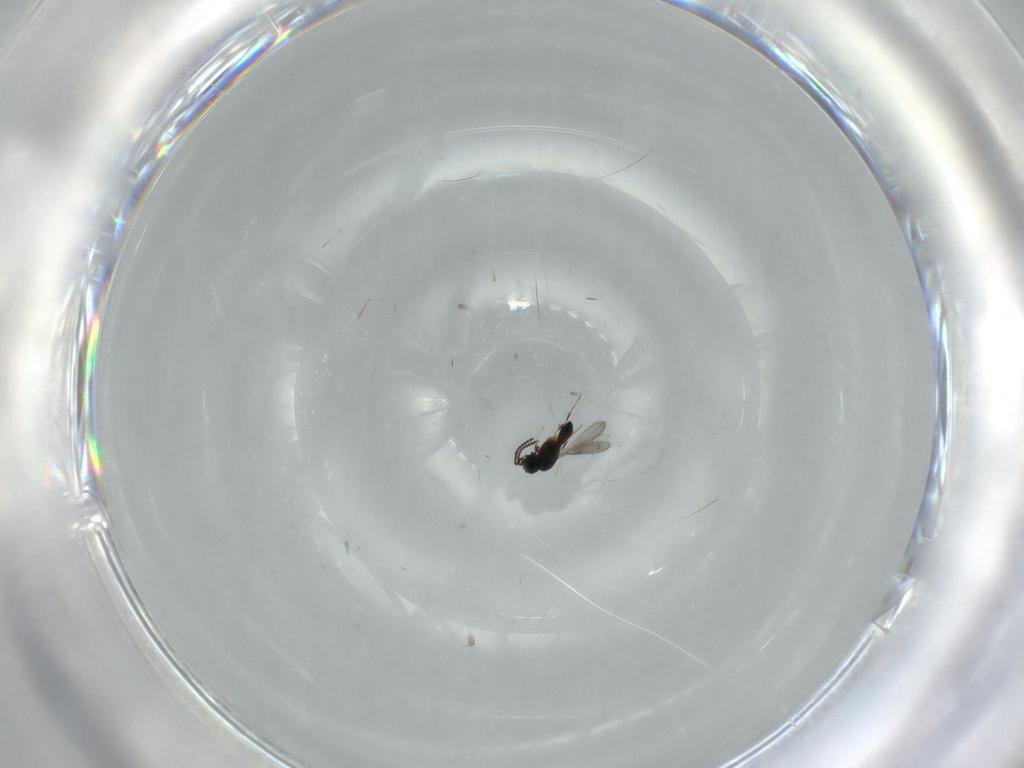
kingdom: Animalia
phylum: Arthropoda
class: Insecta
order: Hymenoptera
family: Scelionidae
